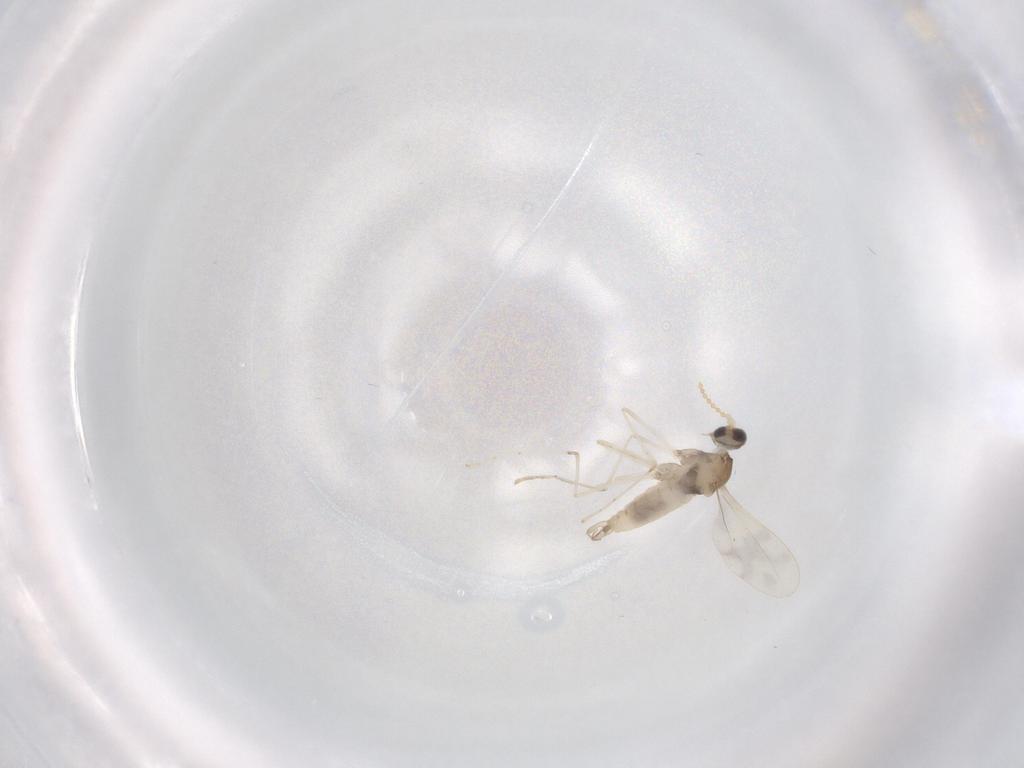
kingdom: Animalia
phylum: Arthropoda
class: Insecta
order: Diptera
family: Cecidomyiidae
